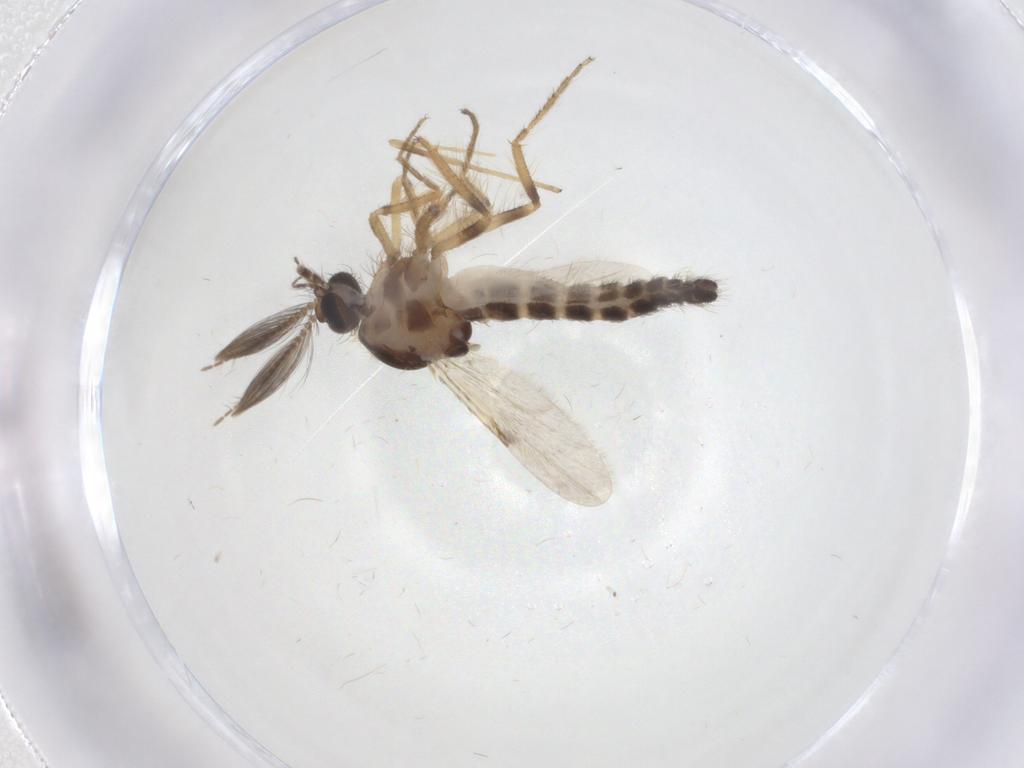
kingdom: Animalia
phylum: Arthropoda
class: Insecta
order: Diptera
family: Ceratopogonidae
